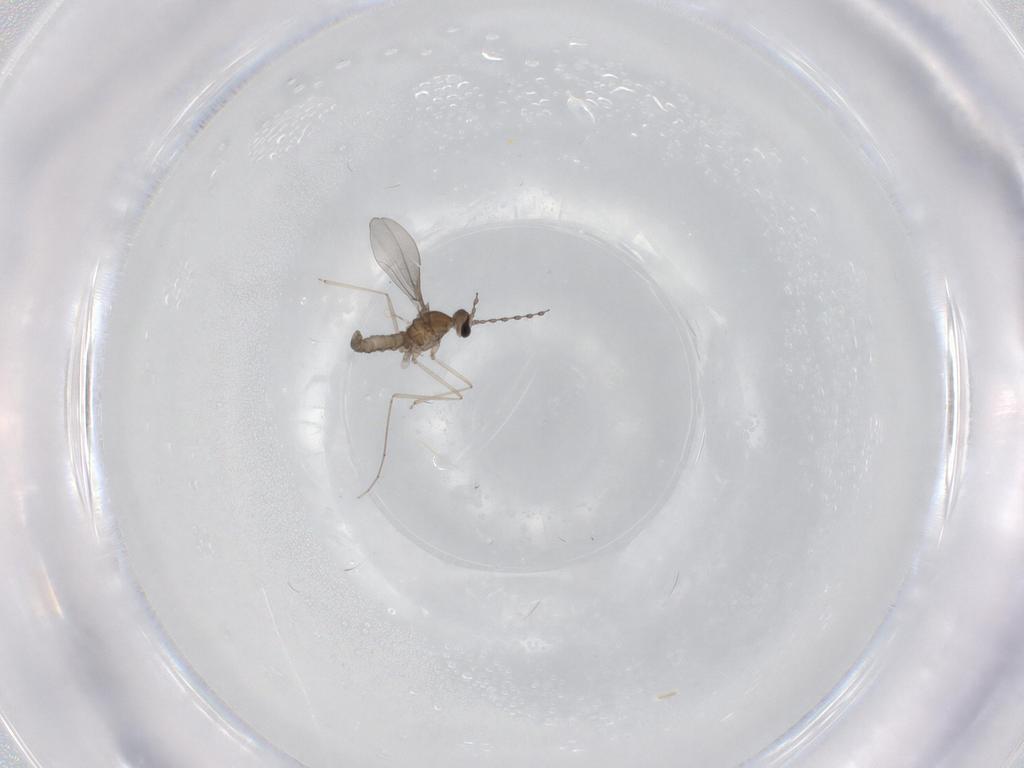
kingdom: Animalia
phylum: Arthropoda
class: Insecta
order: Diptera
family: Cecidomyiidae
